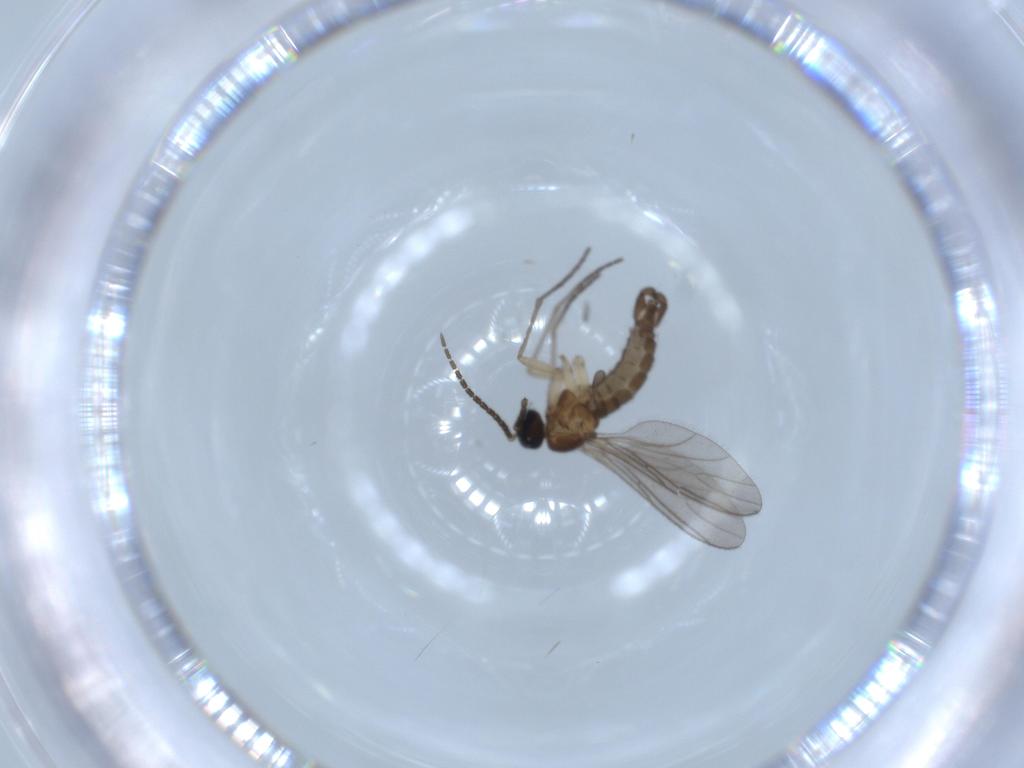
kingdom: Animalia
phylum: Arthropoda
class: Insecta
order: Diptera
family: Sciaridae
